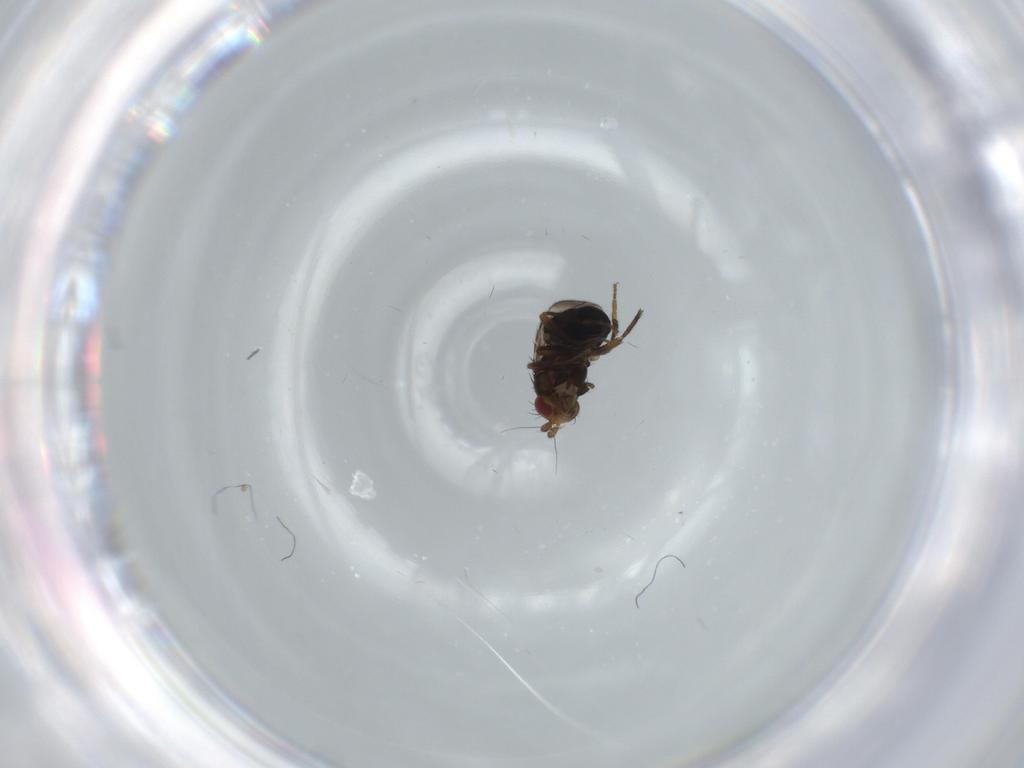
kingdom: Animalia
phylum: Arthropoda
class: Insecta
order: Diptera
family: Sphaeroceridae
